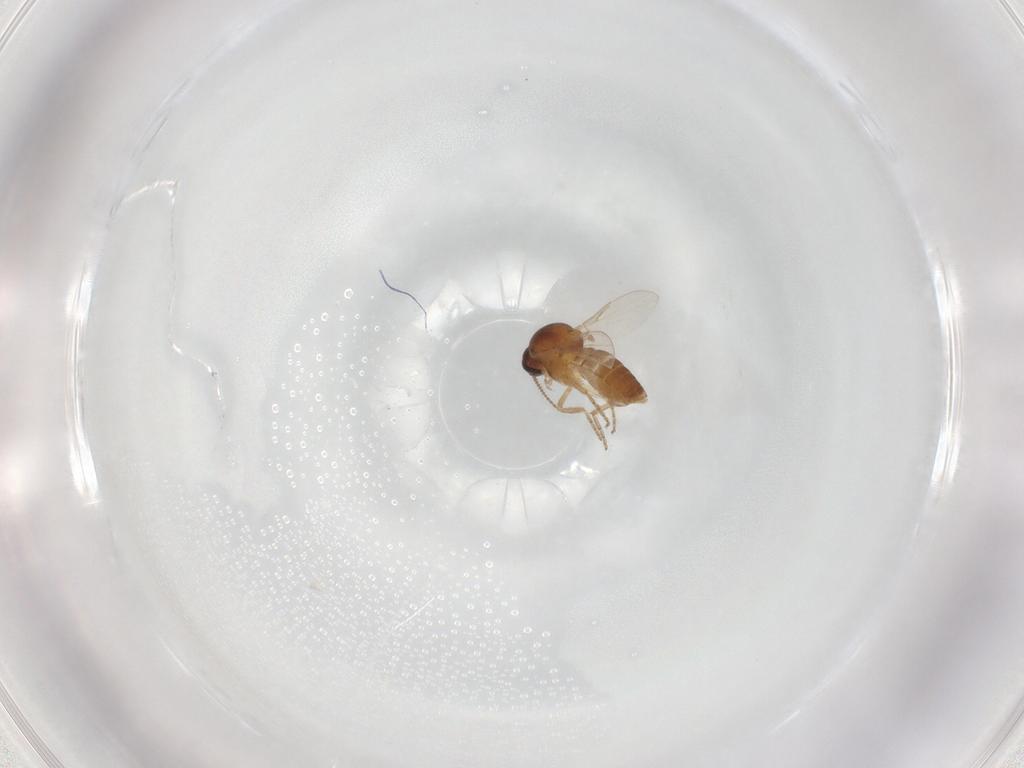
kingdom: Animalia
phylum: Arthropoda
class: Insecta
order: Diptera
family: Ceratopogonidae
